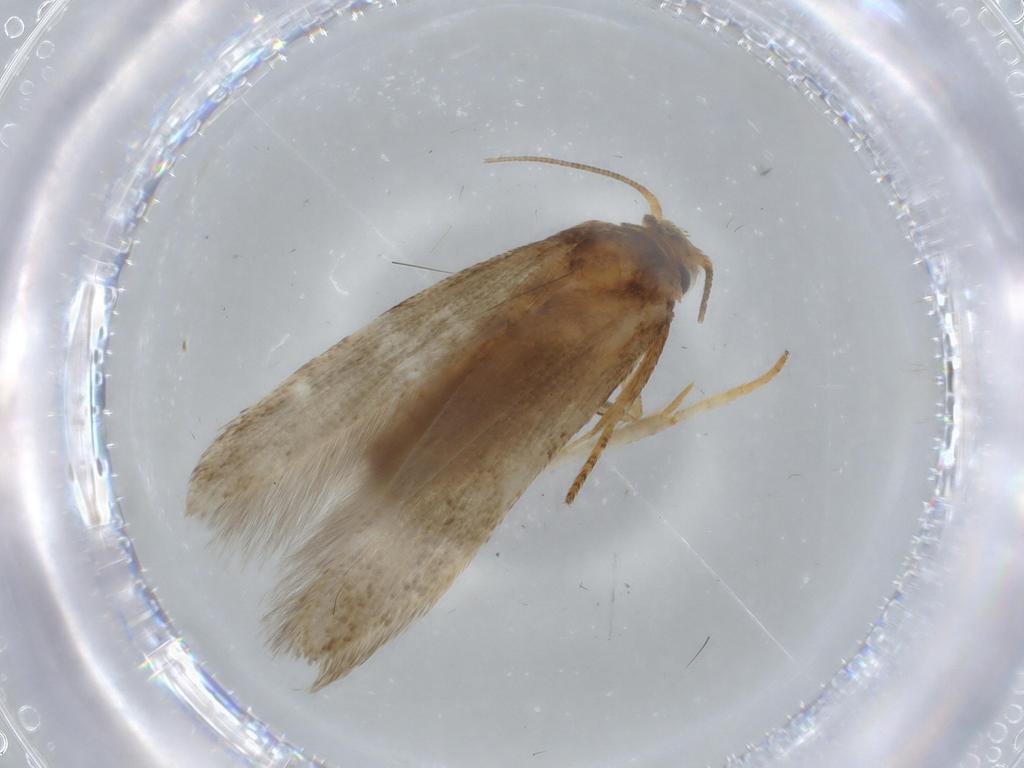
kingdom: Animalia
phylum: Arthropoda
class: Insecta
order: Lepidoptera
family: Blastobasidae
